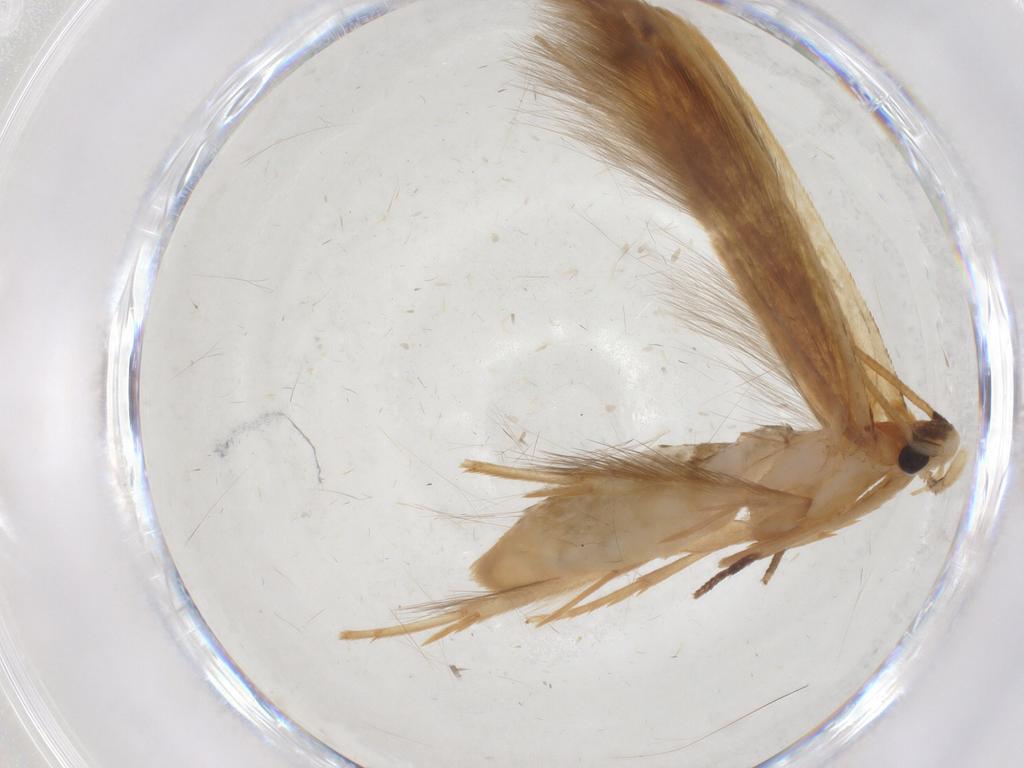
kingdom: Animalia
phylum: Arthropoda
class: Insecta
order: Lepidoptera
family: Cosmopterigidae
